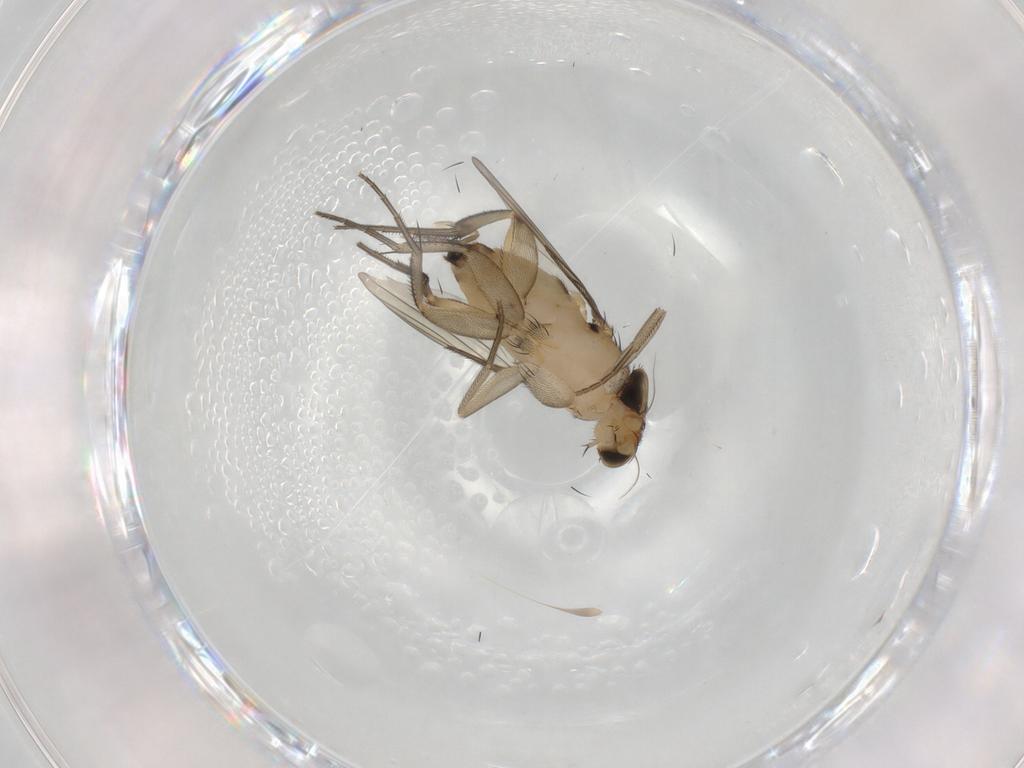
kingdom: Animalia
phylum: Arthropoda
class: Insecta
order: Diptera
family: Phoridae
